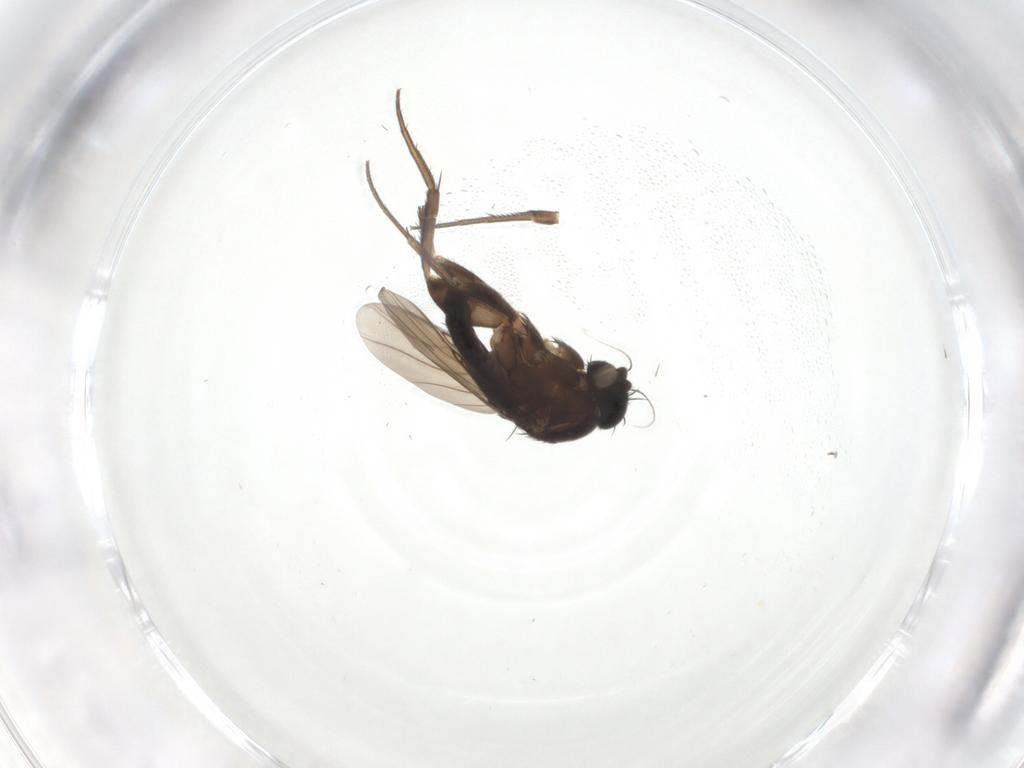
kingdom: Animalia
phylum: Arthropoda
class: Insecta
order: Diptera
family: Phoridae
